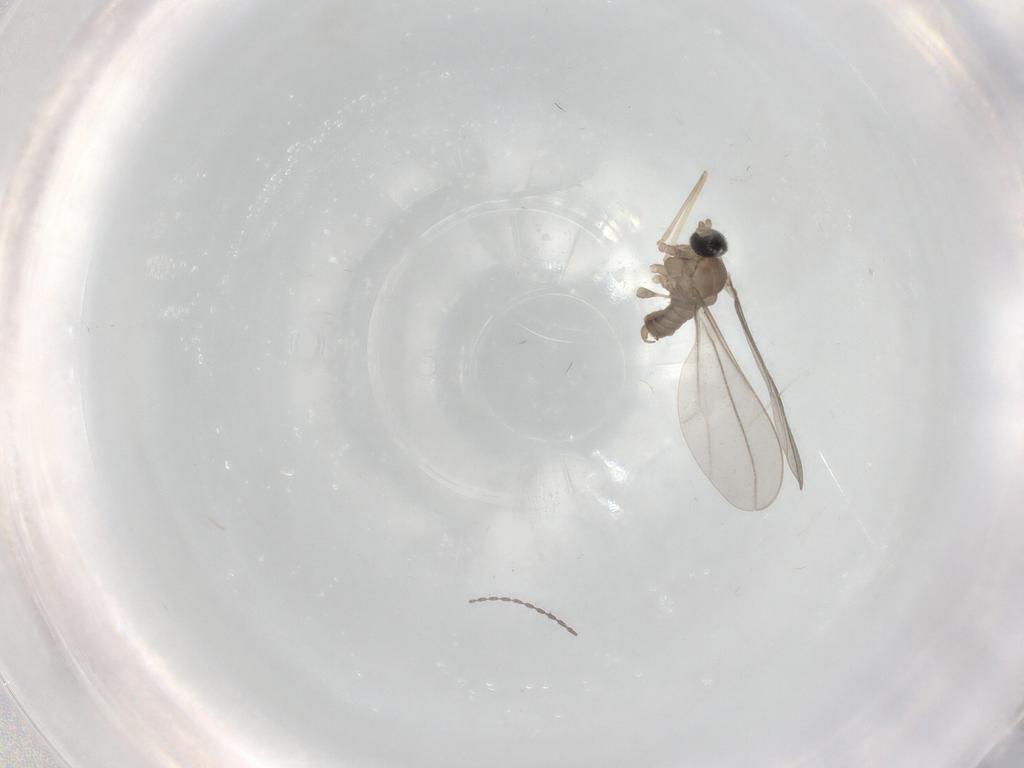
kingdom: Animalia
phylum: Arthropoda
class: Insecta
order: Diptera
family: Cecidomyiidae
